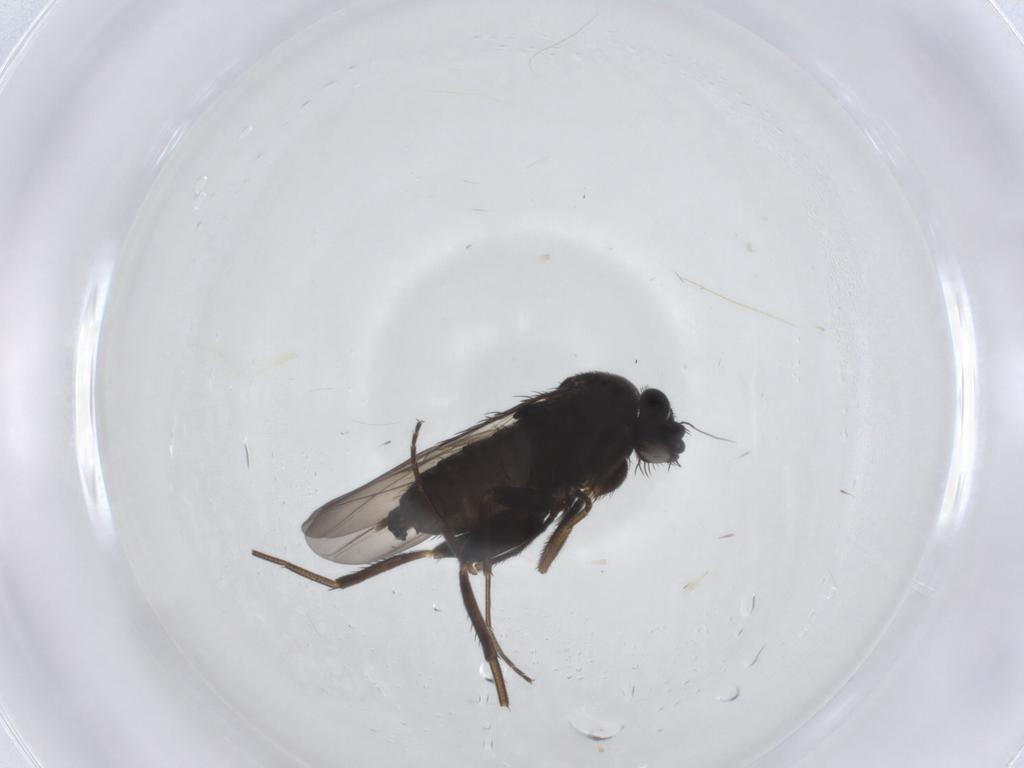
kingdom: Animalia
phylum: Arthropoda
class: Insecta
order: Diptera
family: Phoridae
